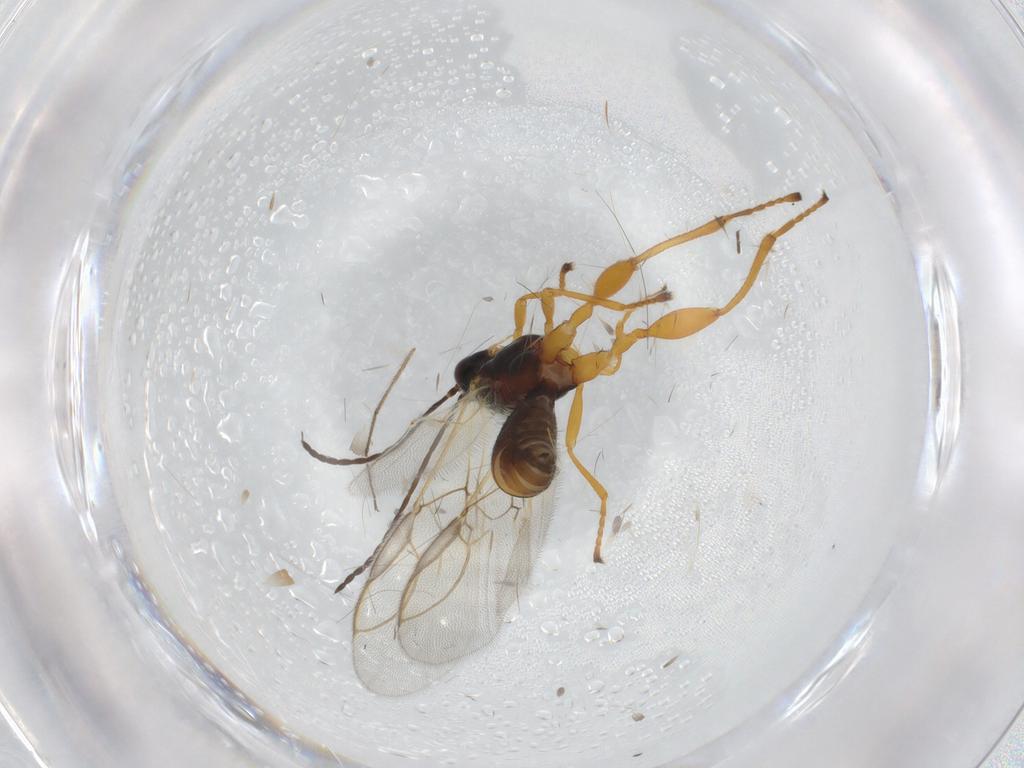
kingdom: Animalia
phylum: Arthropoda
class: Insecta
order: Hymenoptera
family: Braconidae
